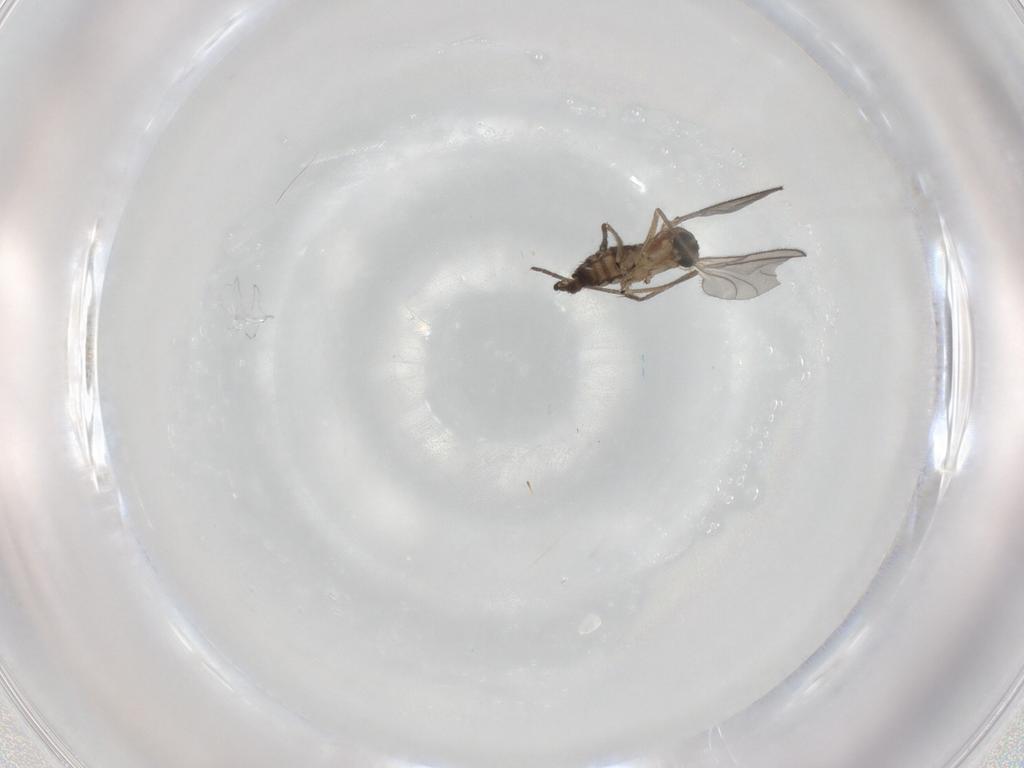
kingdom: Animalia
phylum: Arthropoda
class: Insecta
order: Diptera
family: Sciaridae
